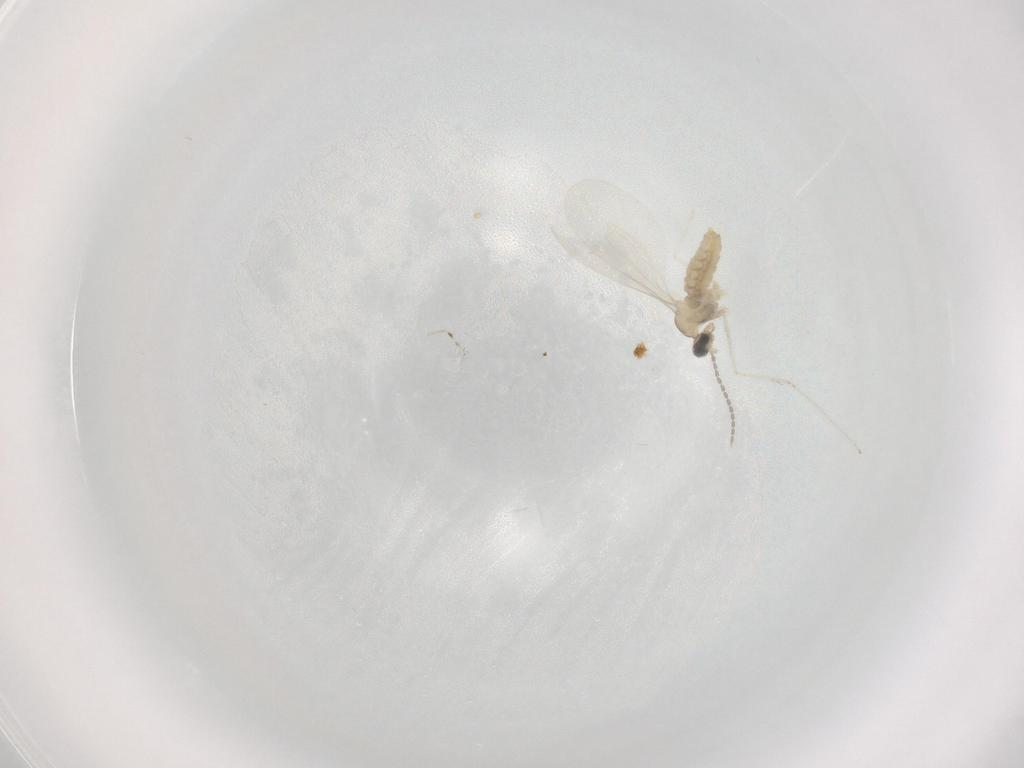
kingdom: Animalia
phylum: Arthropoda
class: Insecta
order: Diptera
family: Cecidomyiidae
